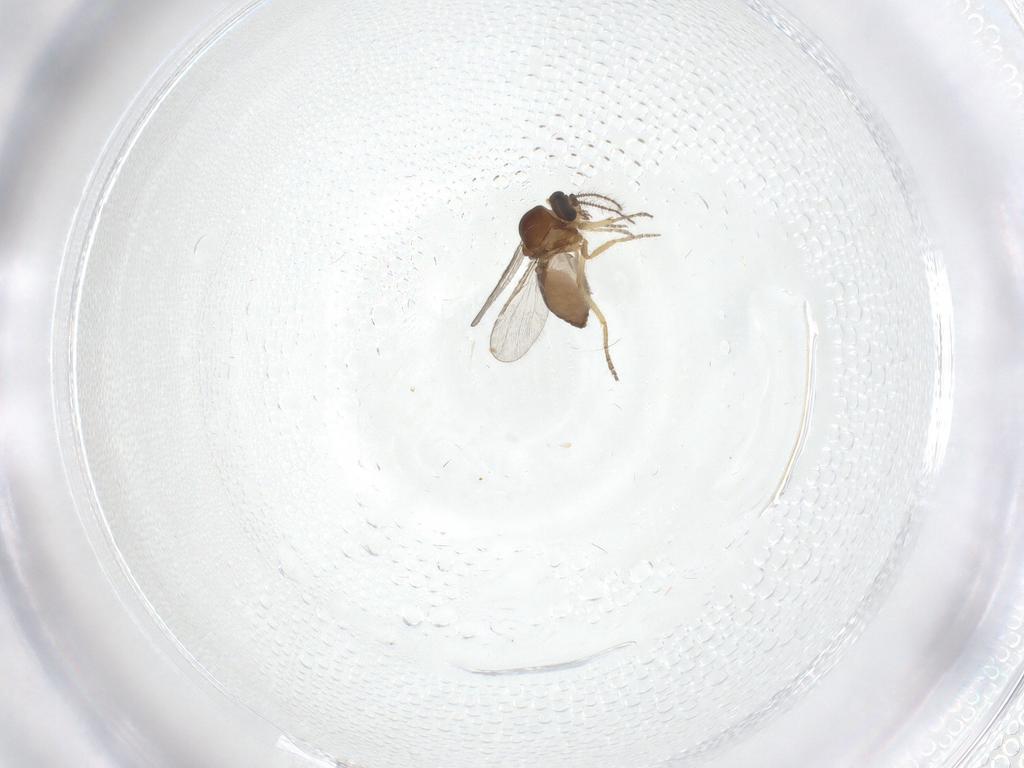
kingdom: Animalia
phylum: Arthropoda
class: Insecta
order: Diptera
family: Ceratopogonidae
